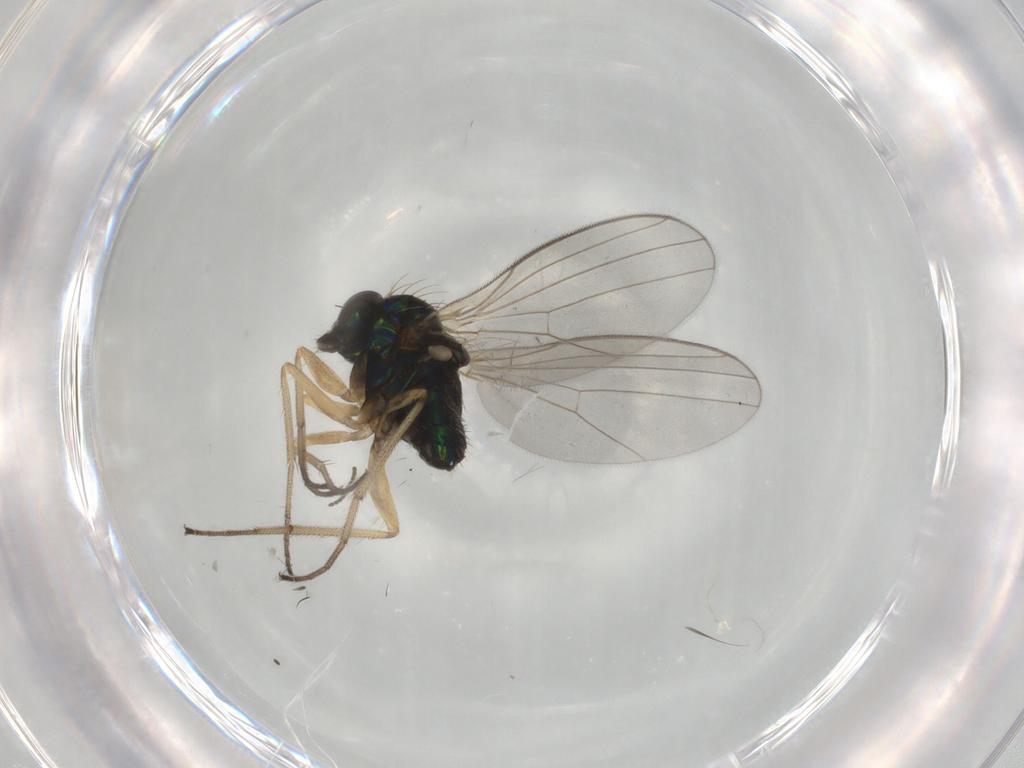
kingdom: Animalia
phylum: Arthropoda
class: Insecta
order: Diptera
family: Dolichopodidae
